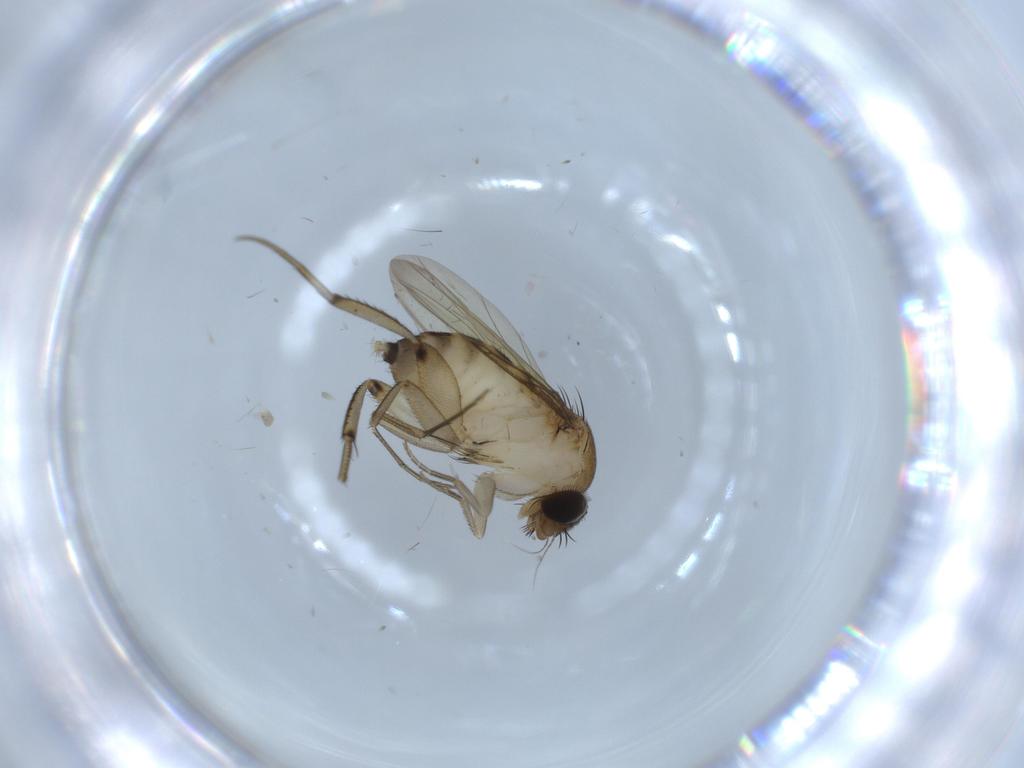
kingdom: Animalia
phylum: Arthropoda
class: Insecta
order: Diptera
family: Phoridae
